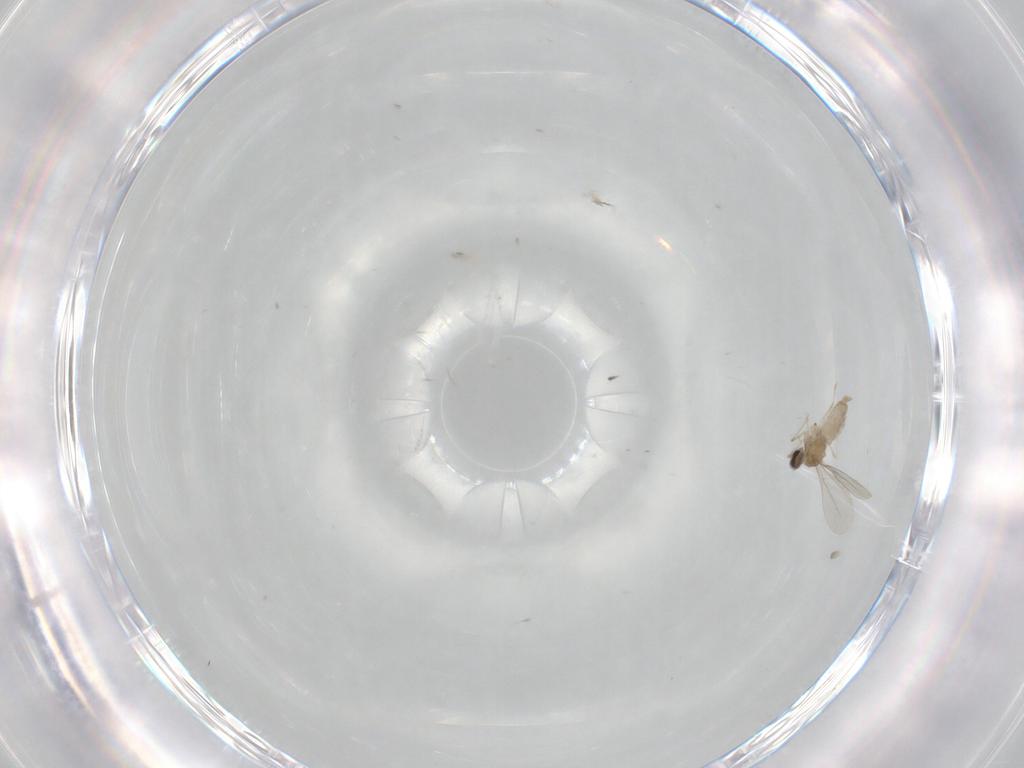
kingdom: Animalia
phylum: Arthropoda
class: Insecta
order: Diptera
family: Cecidomyiidae
